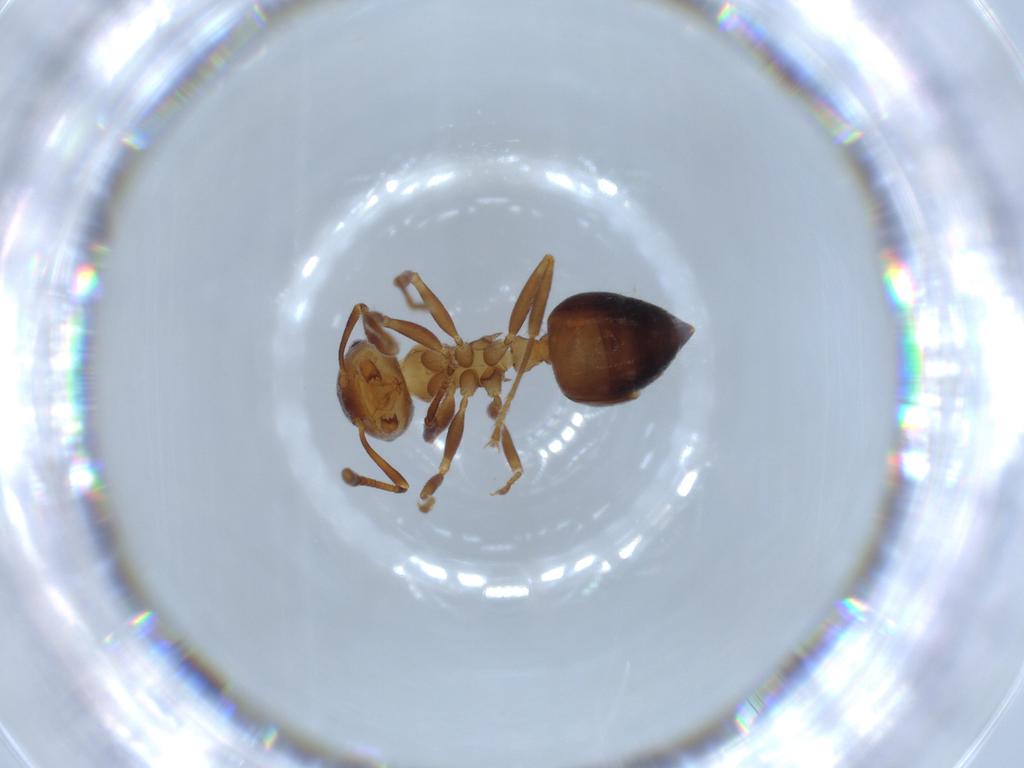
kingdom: Animalia
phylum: Arthropoda
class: Insecta
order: Hymenoptera
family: Formicidae
